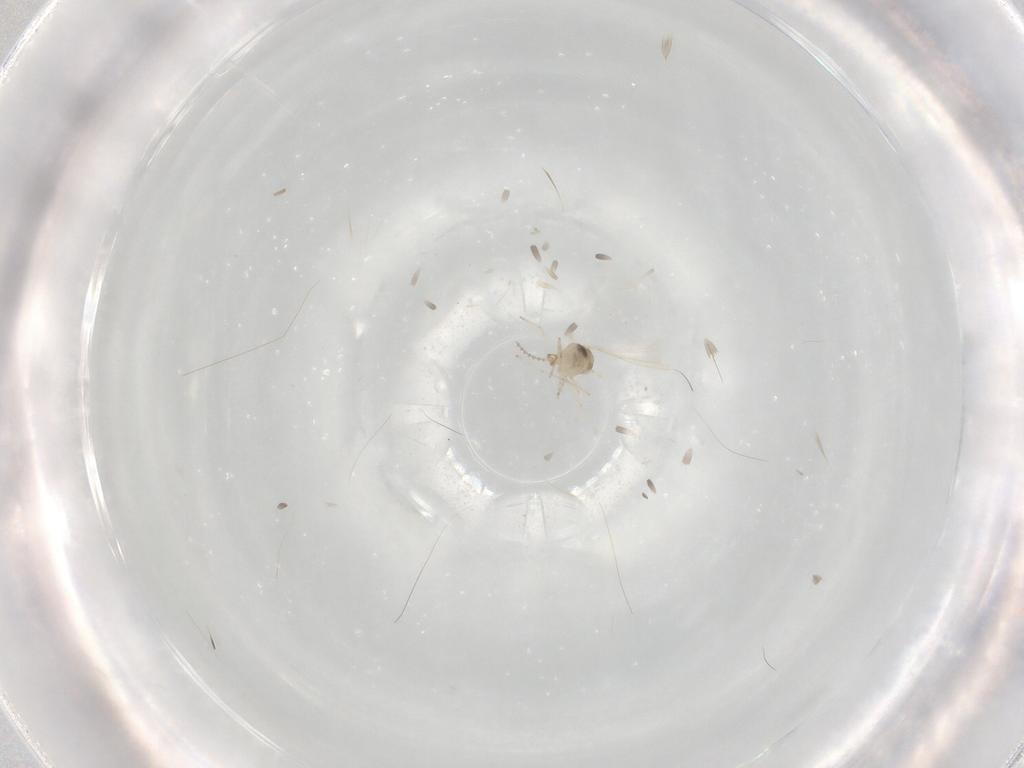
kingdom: Animalia
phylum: Arthropoda
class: Insecta
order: Diptera
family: Cecidomyiidae
